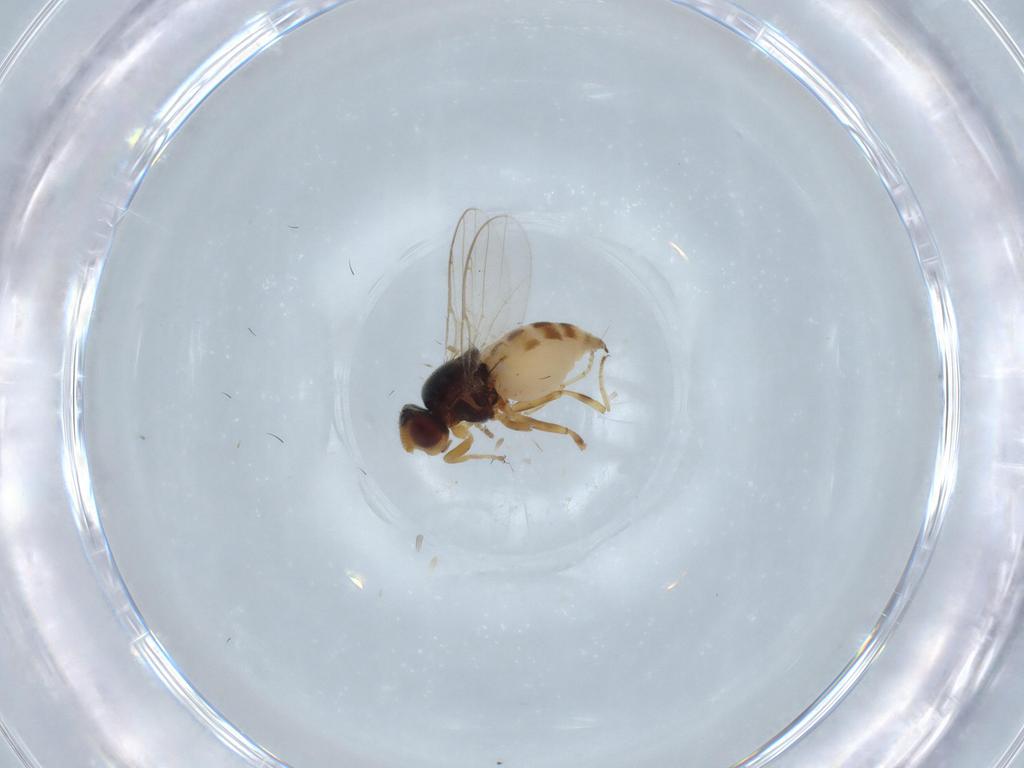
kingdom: Animalia
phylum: Arthropoda
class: Insecta
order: Diptera
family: Chloropidae
